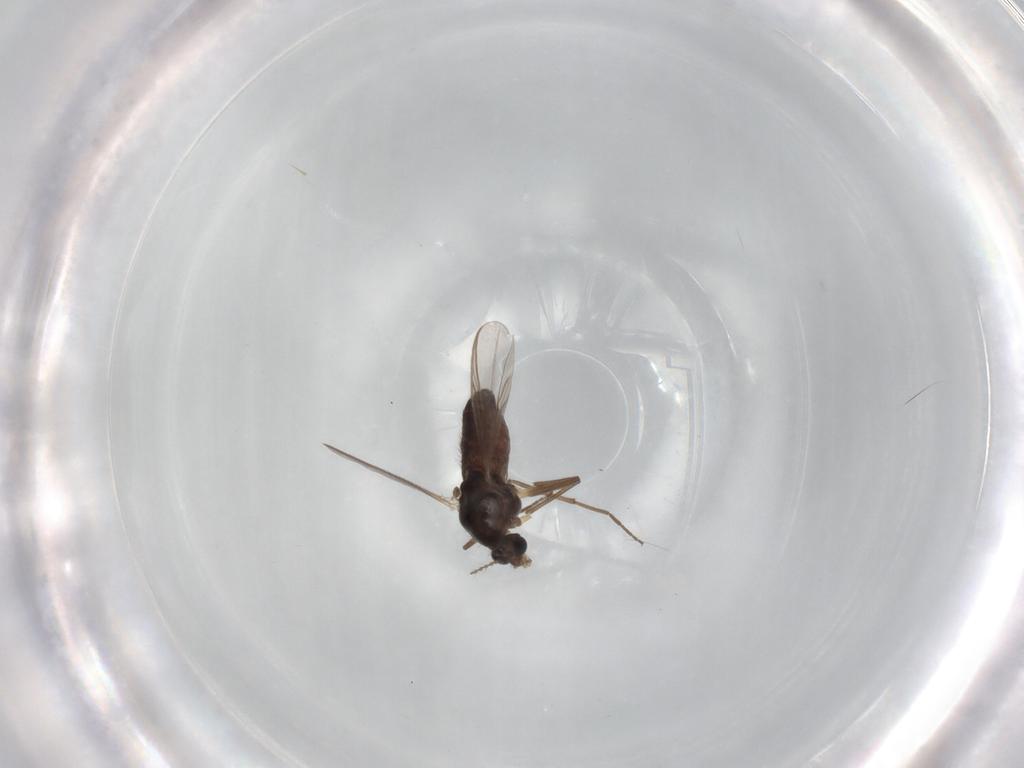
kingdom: Animalia
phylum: Arthropoda
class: Insecta
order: Diptera
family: Chironomidae
